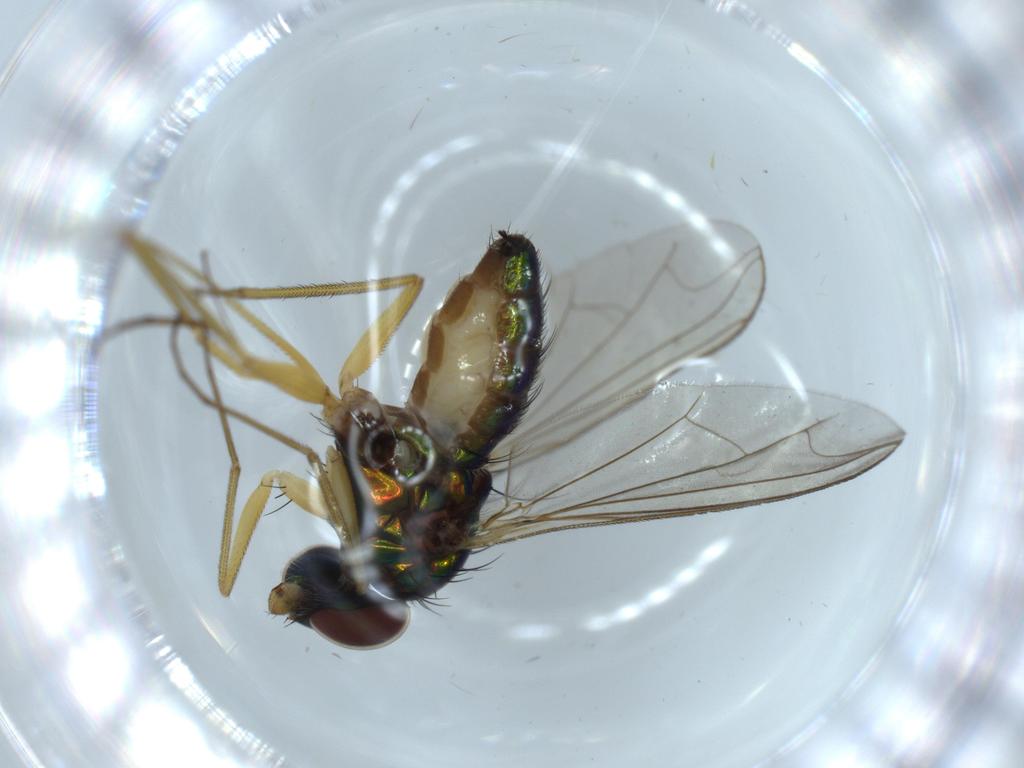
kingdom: Animalia
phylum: Arthropoda
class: Insecta
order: Diptera
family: Dolichopodidae
